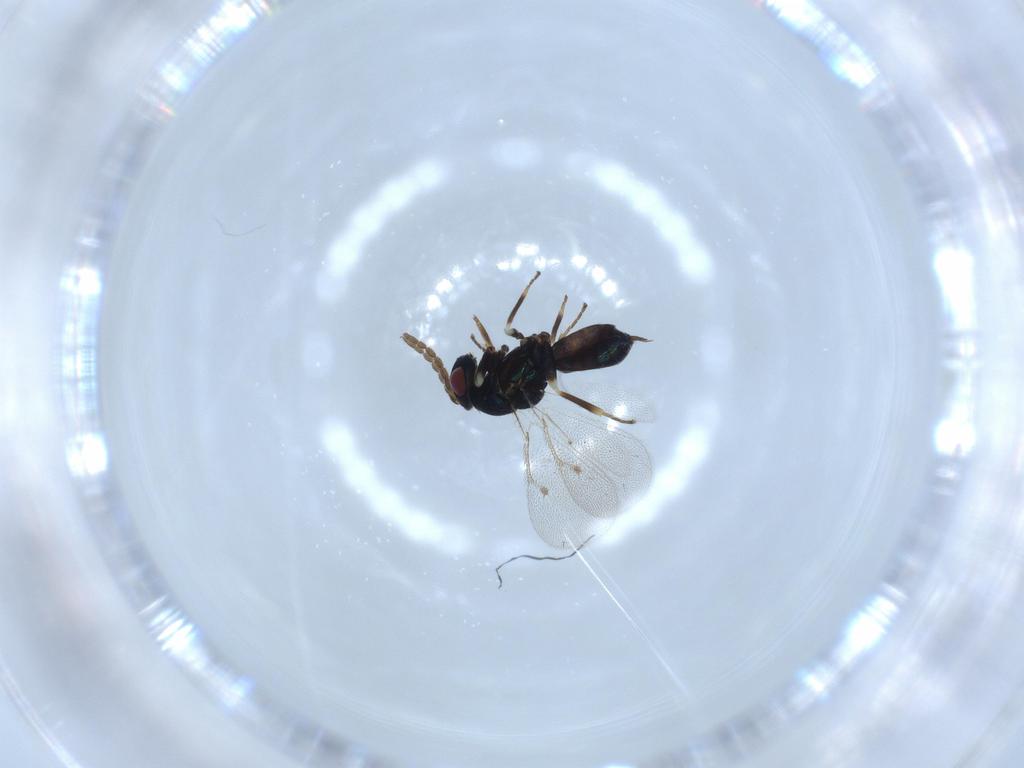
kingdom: Animalia
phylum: Arthropoda
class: Insecta
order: Hymenoptera
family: Eulophidae
